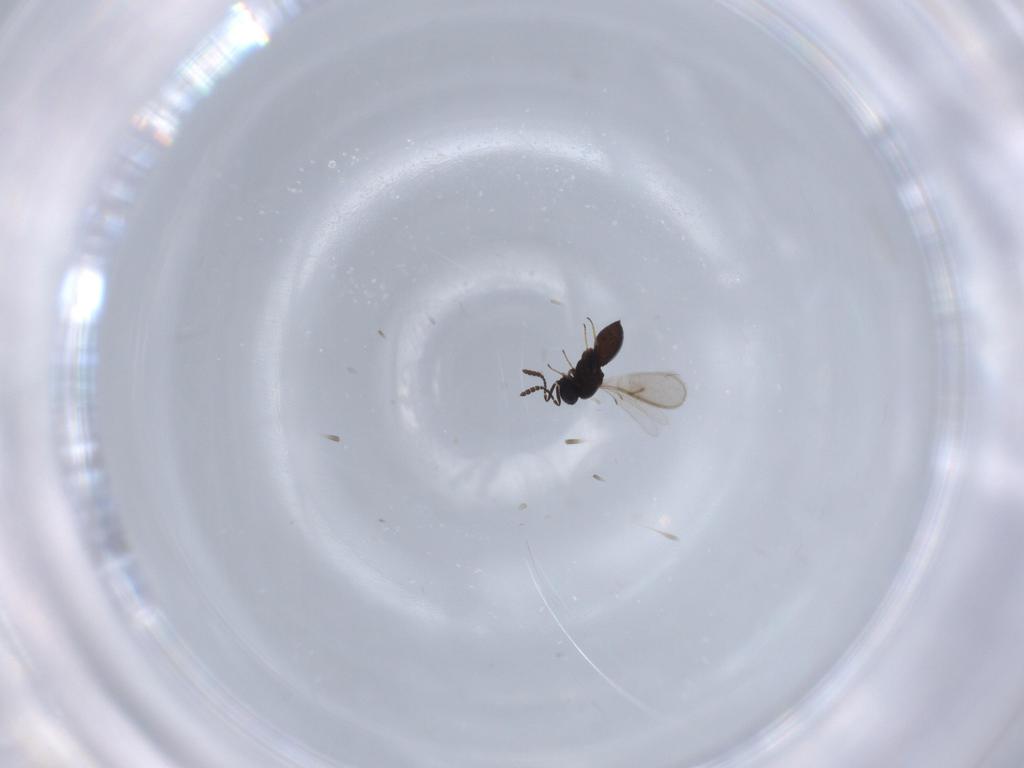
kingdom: Animalia
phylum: Arthropoda
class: Insecta
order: Hymenoptera
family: Scelionidae
